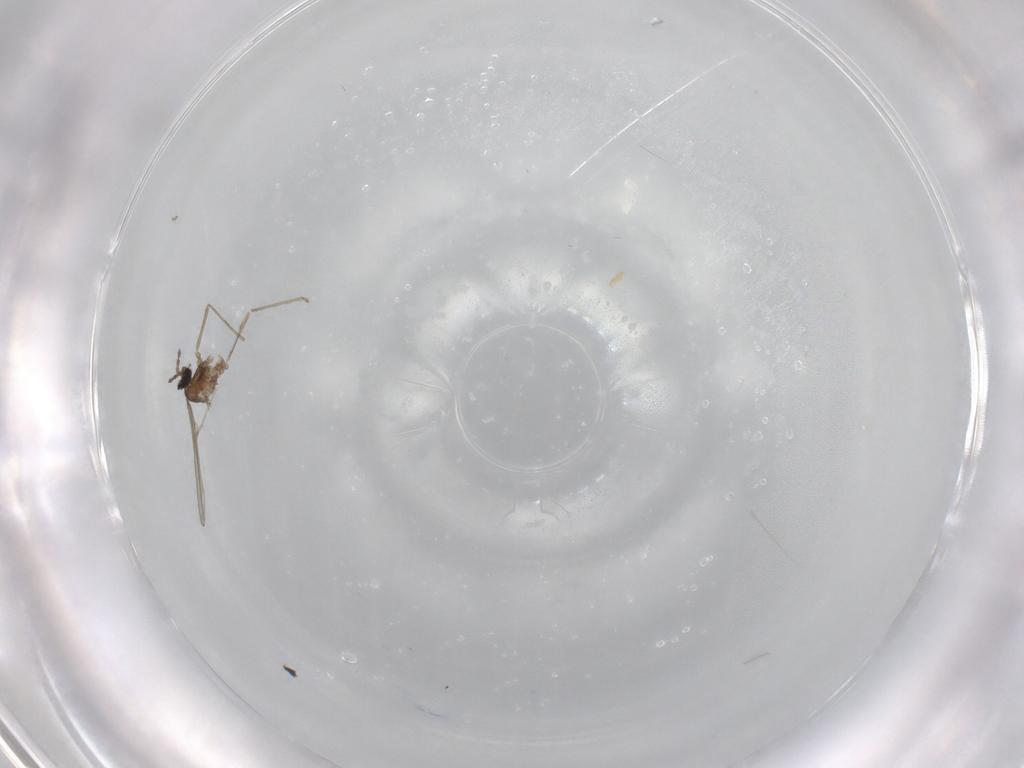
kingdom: Animalia
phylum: Arthropoda
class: Insecta
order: Diptera
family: Cecidomyiidae
